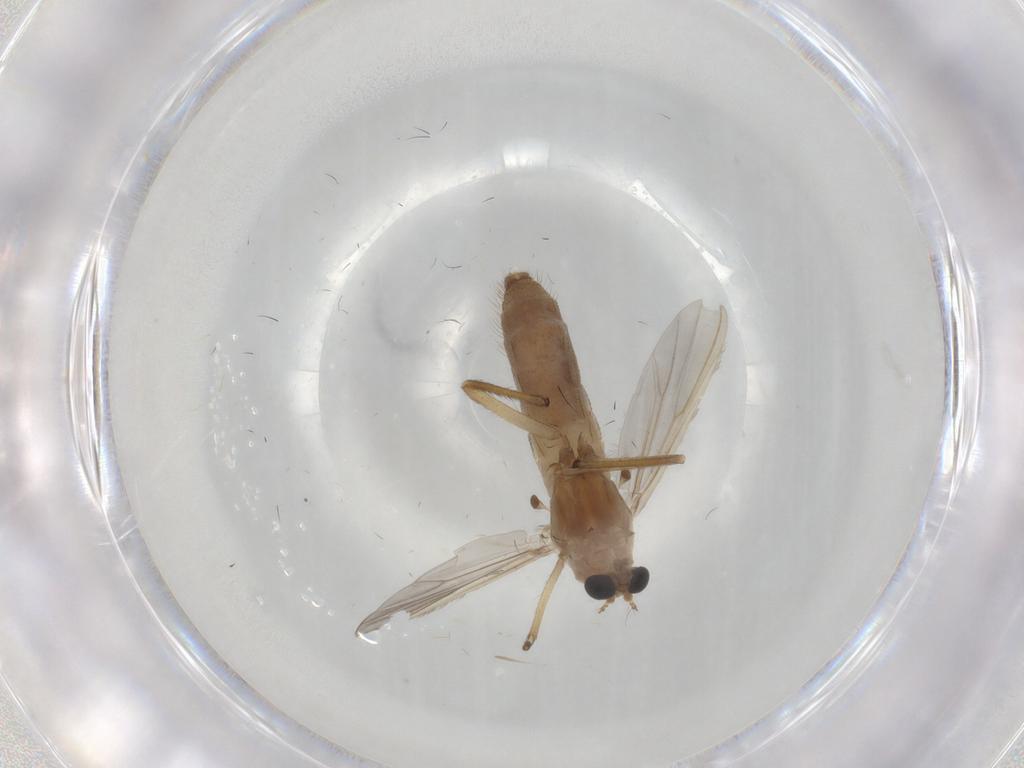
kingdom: Animalia
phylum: Arthropoda
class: Insecta
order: Diptera
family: Chironomidae
